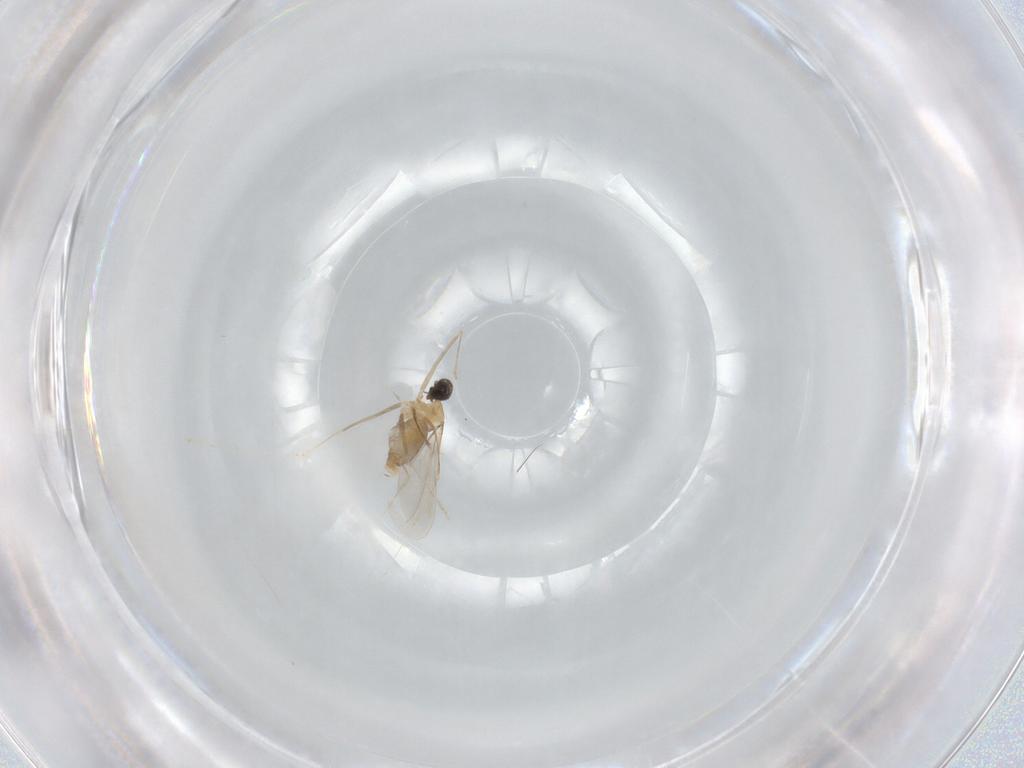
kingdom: Animalia
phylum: Arthropoda
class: Insecta
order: Diptera
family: Cecidomyiidae
